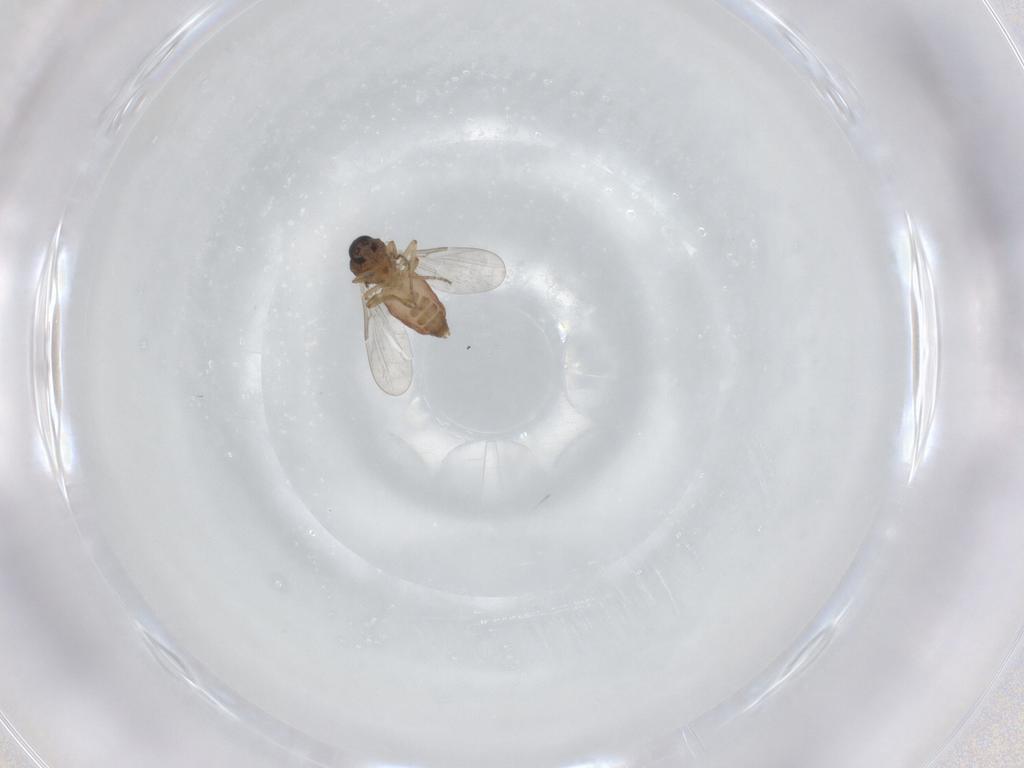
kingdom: Animalia
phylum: Arthropoda
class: Insecta
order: Diptera
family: Ceratopogonidae
